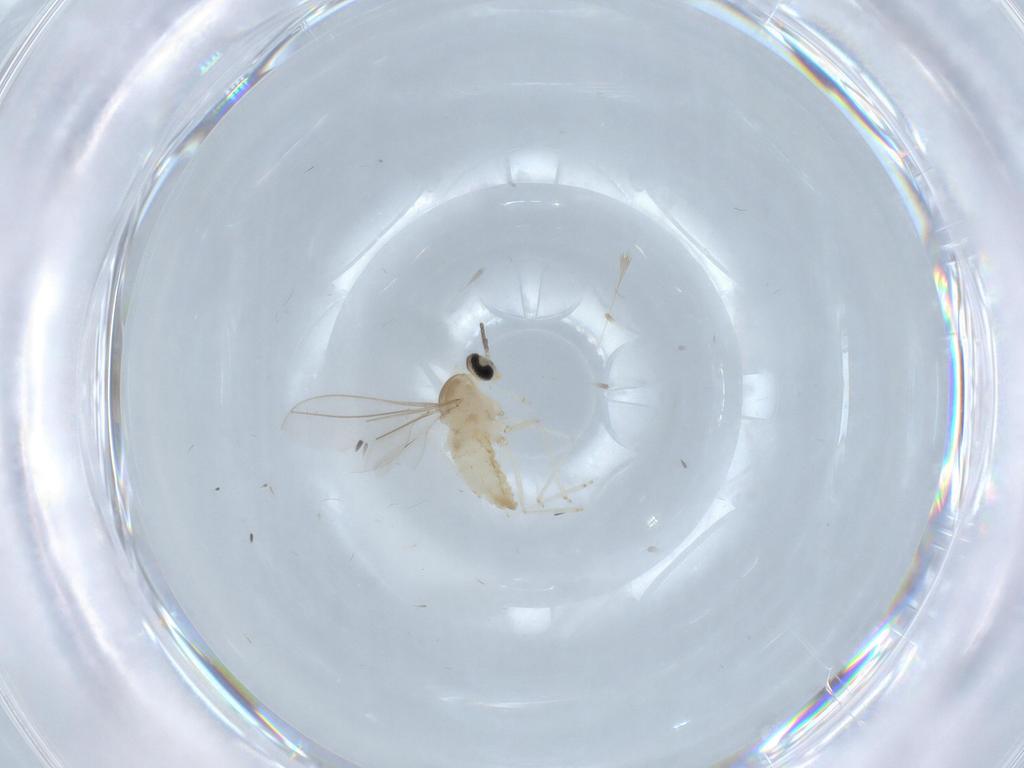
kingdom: Animalia
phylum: Arthropoda
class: Insecta
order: Diptera
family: Cecidomyiidae
